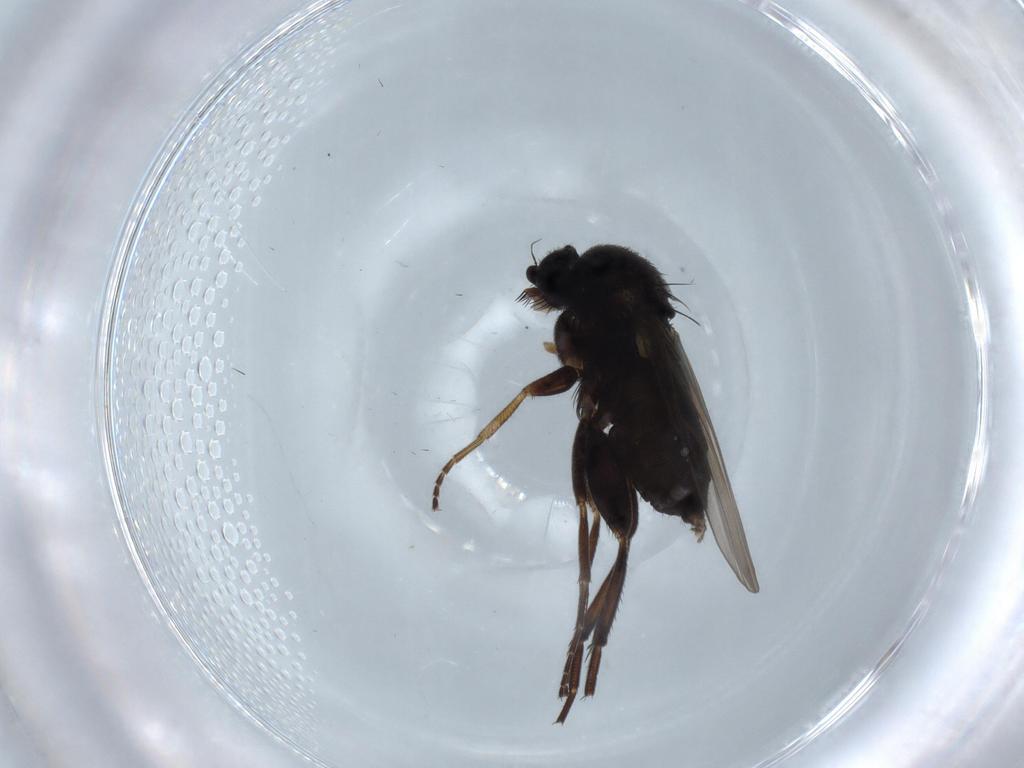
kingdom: Animalia
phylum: Arthropoda
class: Insecta
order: Diptera
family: Phoridae
